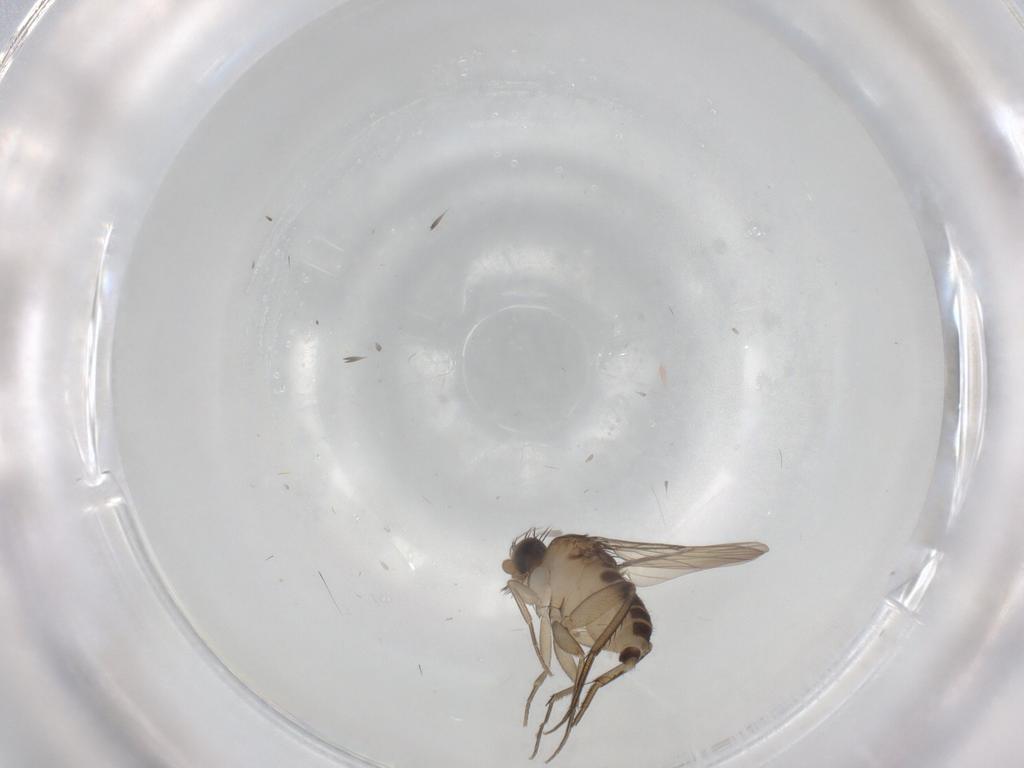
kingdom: Animalia
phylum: Arthropoda
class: Insecta
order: Diptera
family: Phoridae
